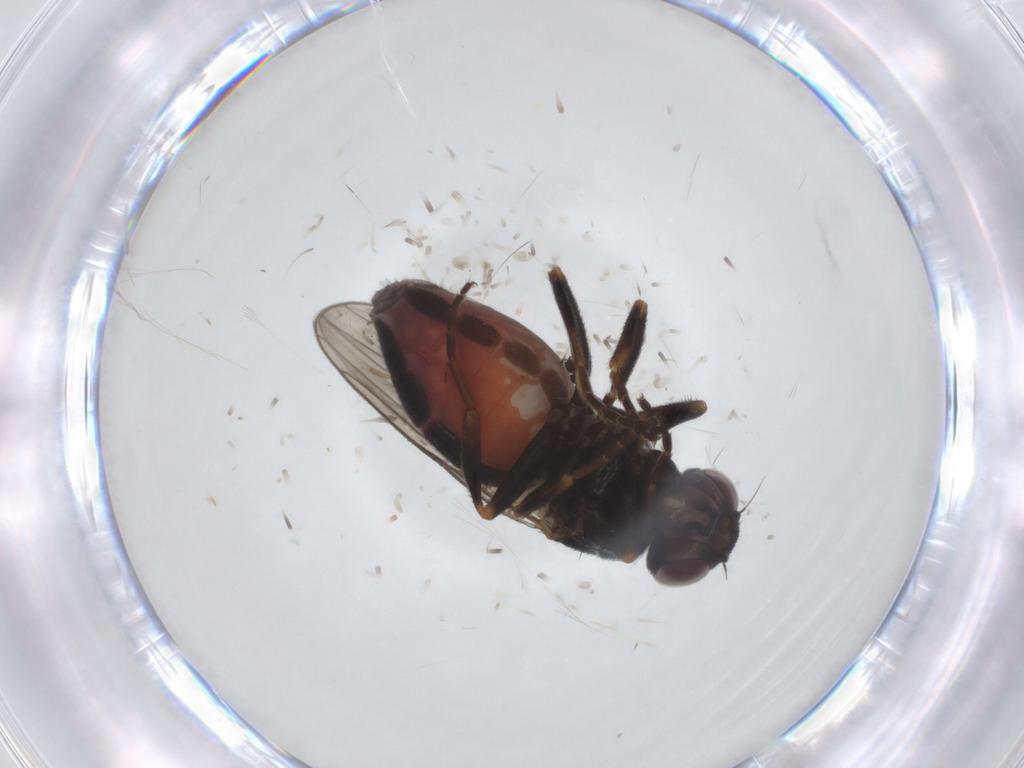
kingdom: Animalia
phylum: Arthropoda
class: Insecta
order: Diptera
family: Chloropidae
